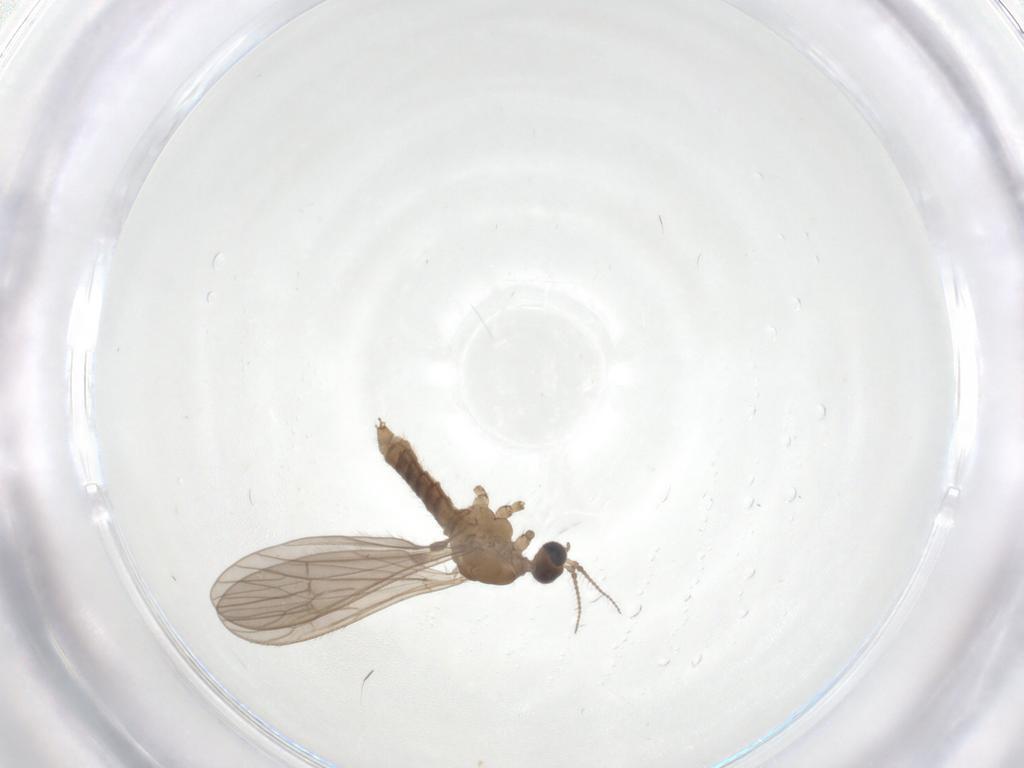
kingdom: Animalia
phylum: Arthropoda
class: Insecta
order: Diptera
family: Limoniidae
